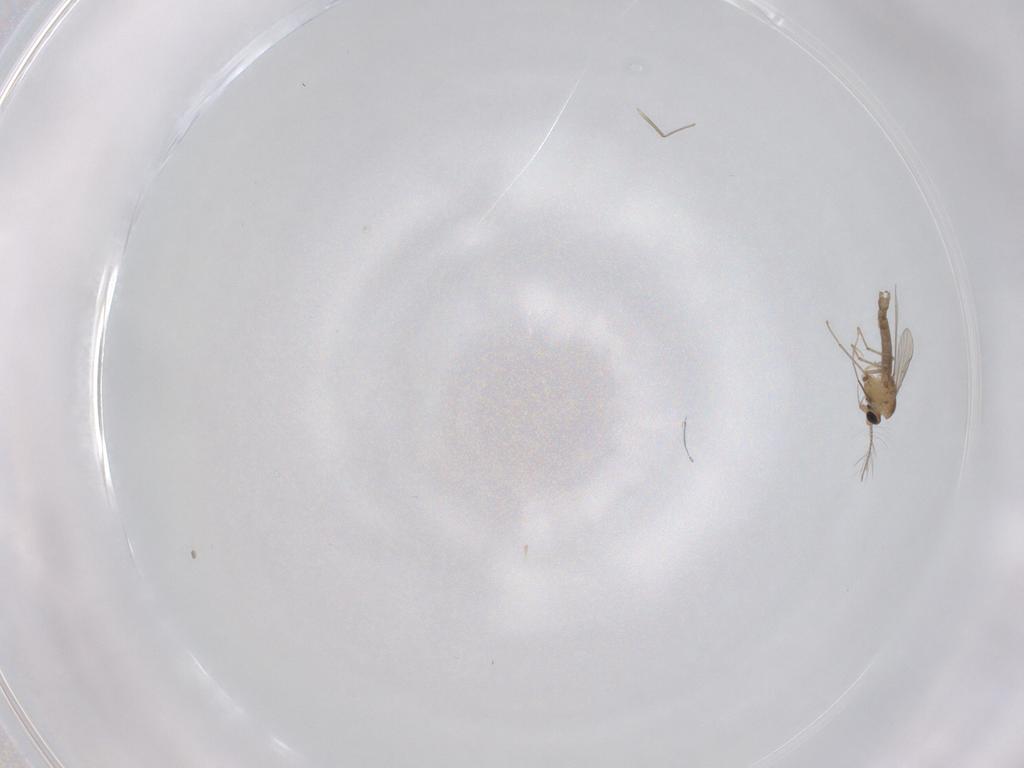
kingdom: Animalia
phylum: Arthropoda
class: Insecta
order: Diptera
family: Chironomidae
